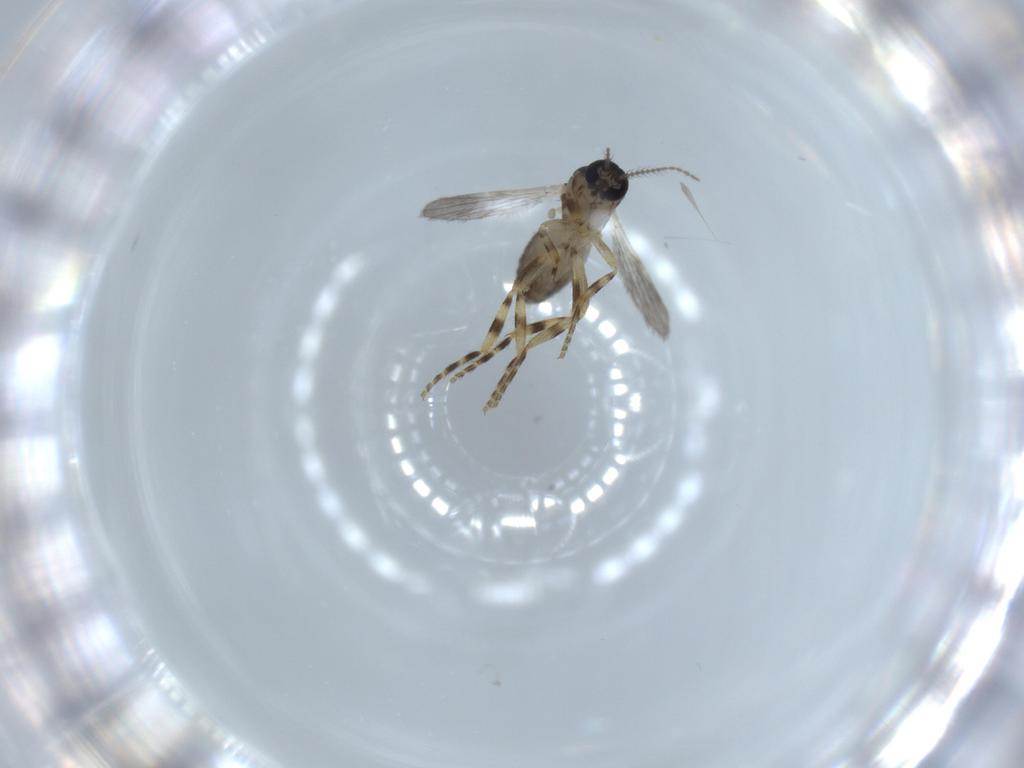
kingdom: Animalia
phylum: Arthropoda
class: Insecta
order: Diptera
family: Ceratopogonidae
